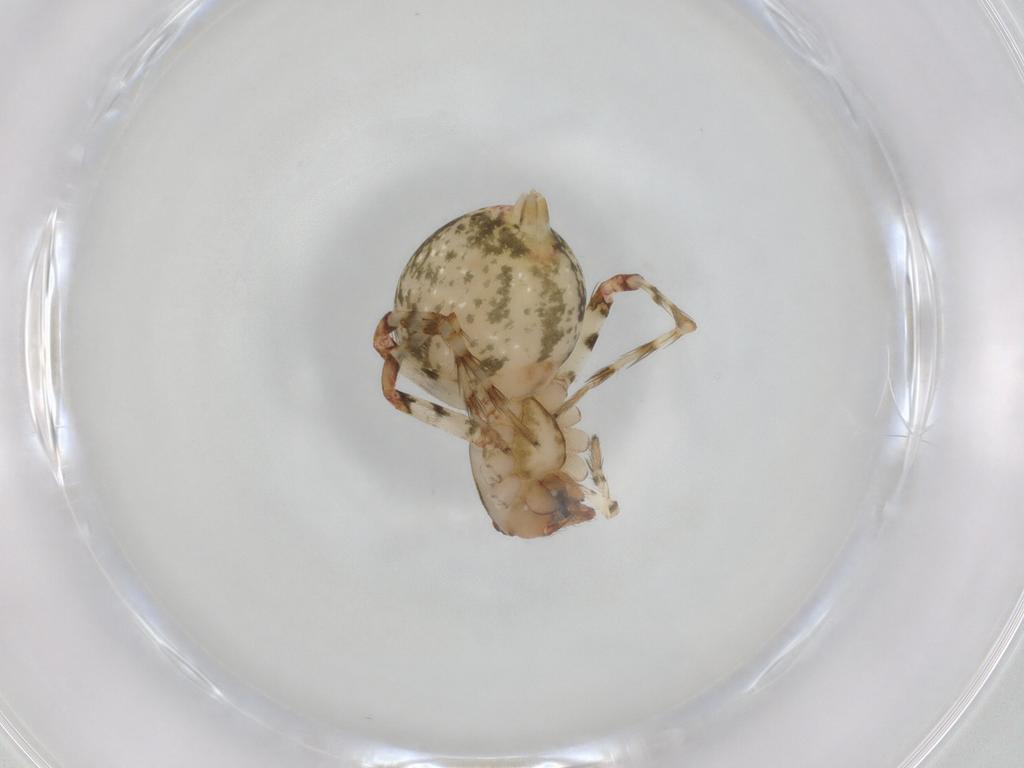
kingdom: Animalia
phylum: Arthropoda
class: Arachnida
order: Araneae
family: Theridiidae
